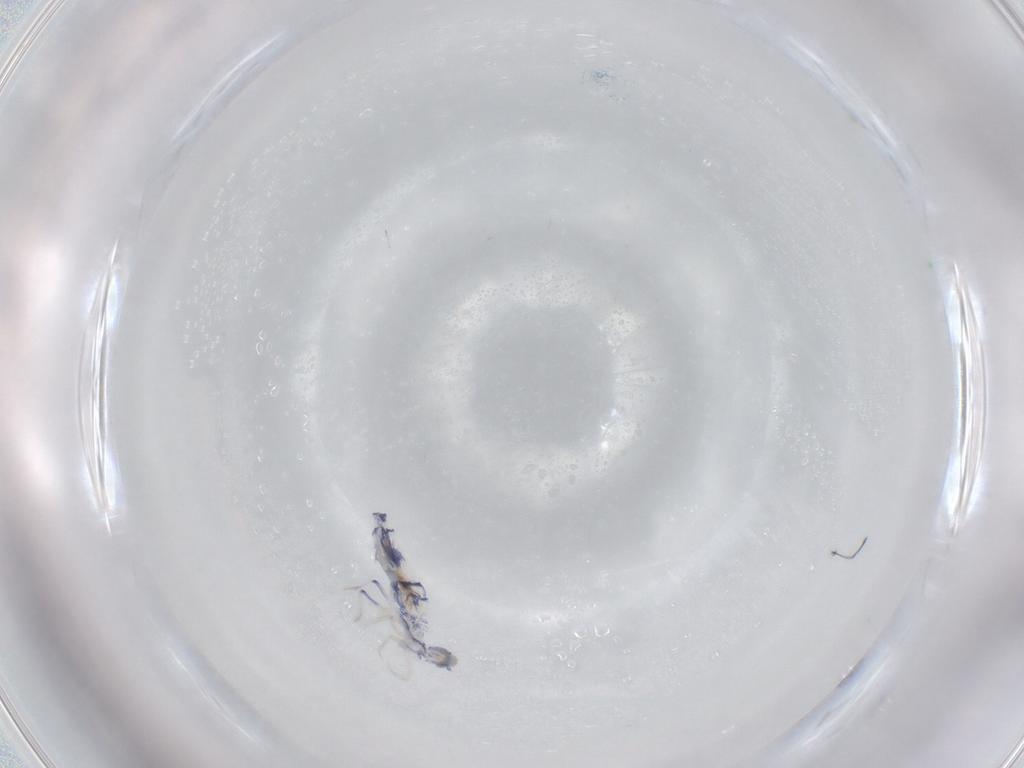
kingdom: Animalia
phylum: Arthropoda
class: Collembola
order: Entomobryomorpha
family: Entomobryidae
